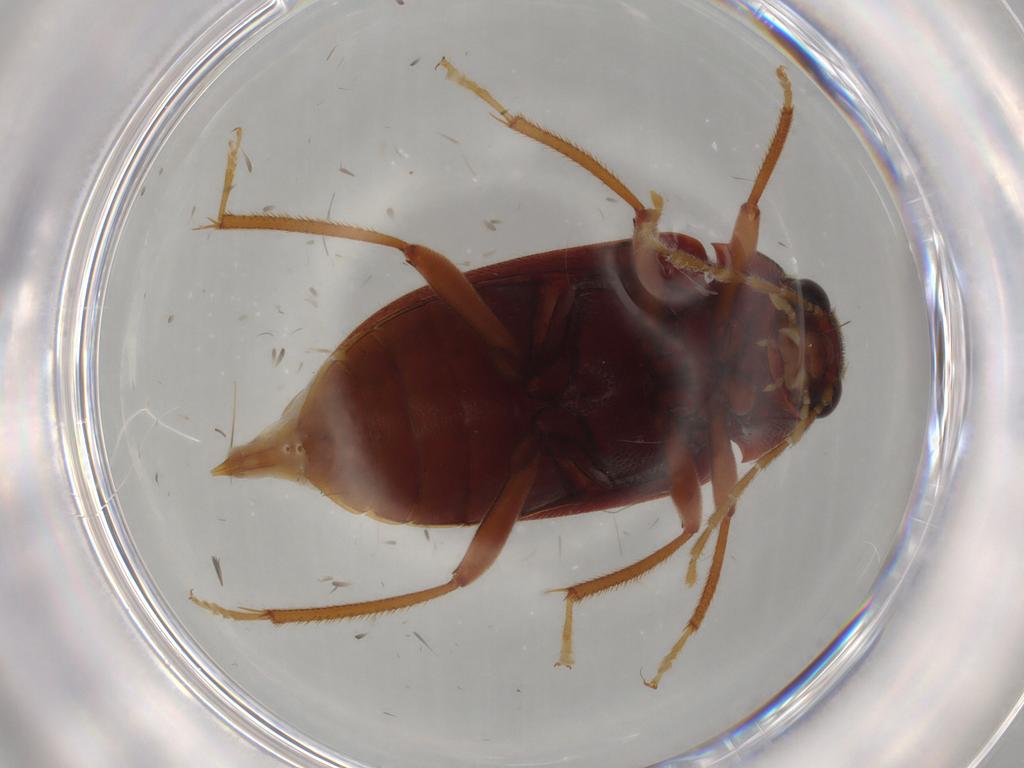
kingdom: Animalia
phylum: Arthropoda
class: Insecta
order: Coleoptera
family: Ptilodactylidae
